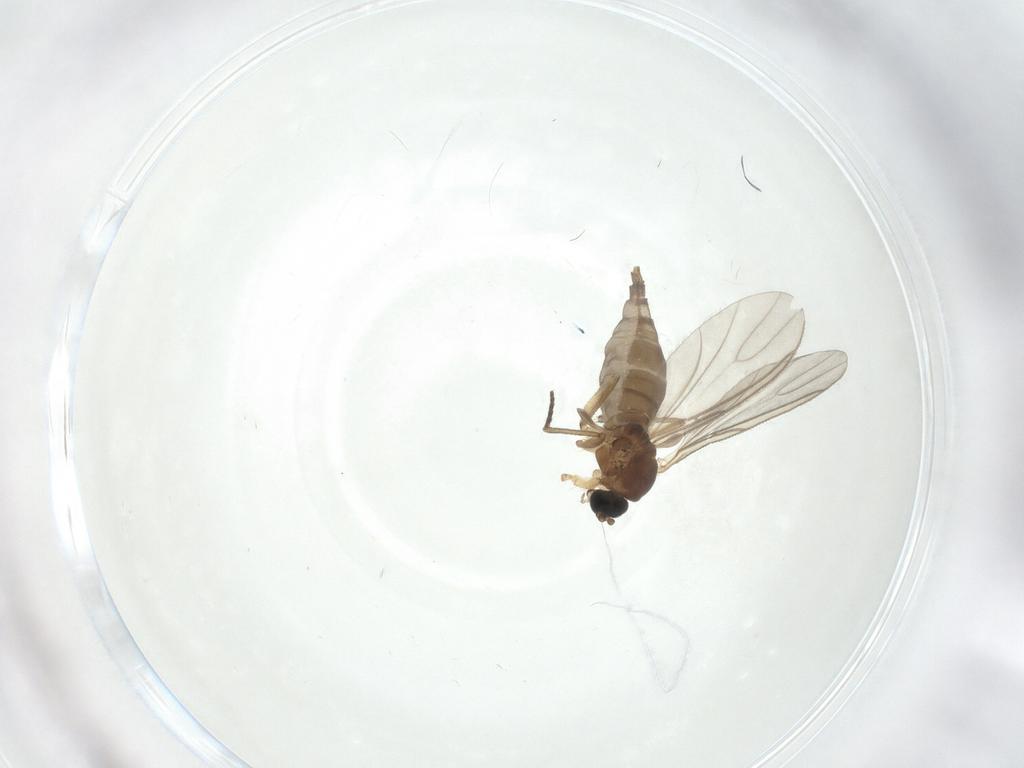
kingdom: Animalia
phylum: Arthropoda
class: Insecta
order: Diptera
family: Sciaridae
